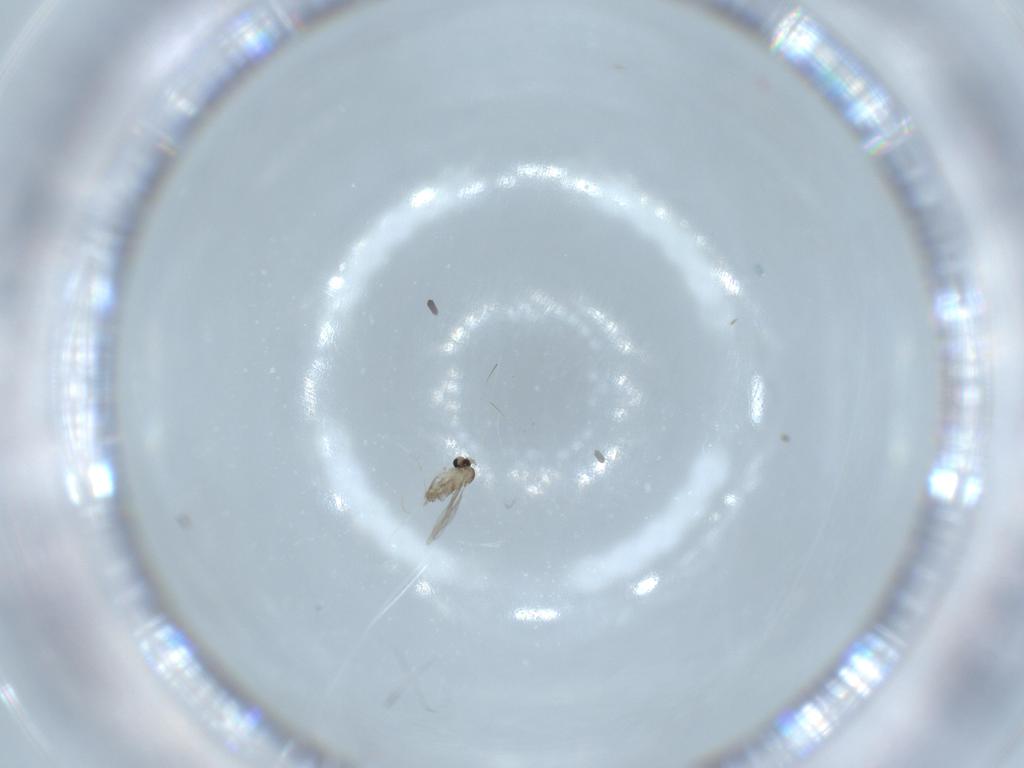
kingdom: Animalia
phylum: Arthropoda
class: Insecta
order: Diptera
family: Cecidomyiidae
